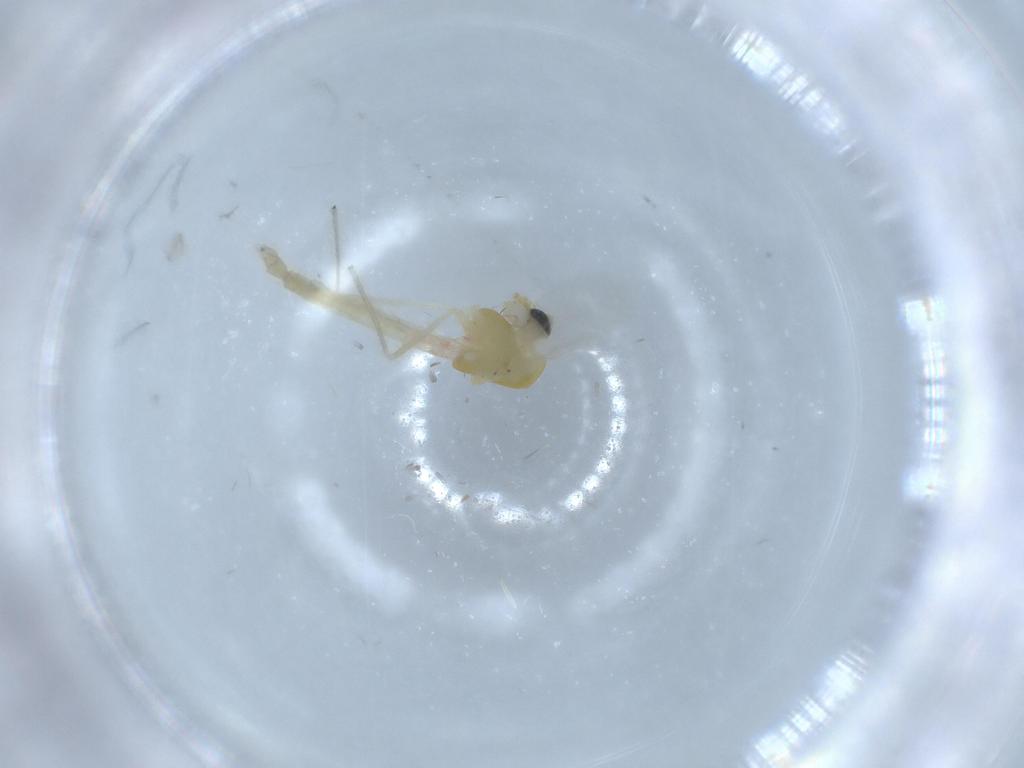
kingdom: Animalia
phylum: Arthropoda
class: Insecta
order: Diptera
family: Chironomidae
